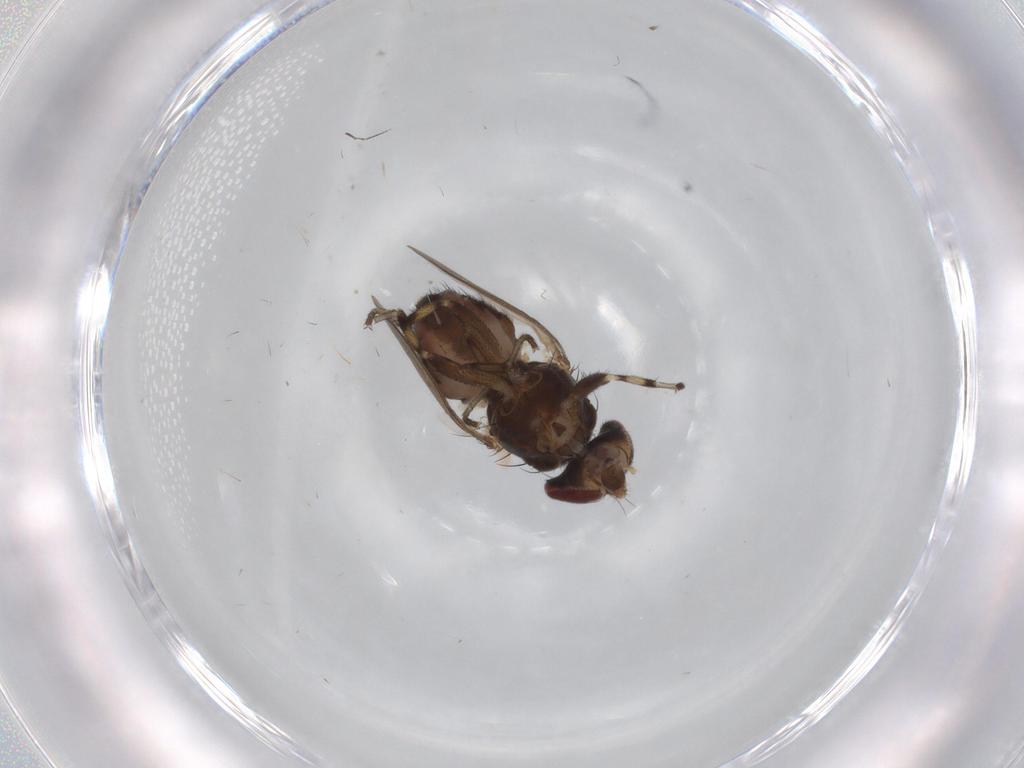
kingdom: Animalia
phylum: Arthropoda
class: Insecta
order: Diptera
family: Heleomyzidae
